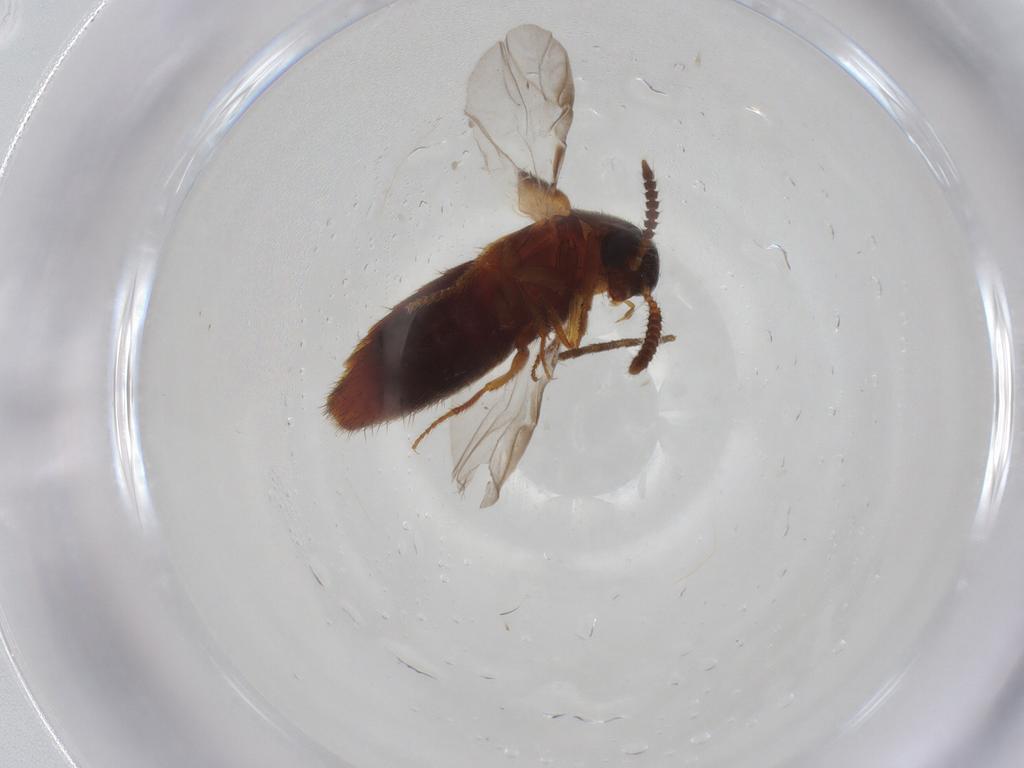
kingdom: Animalia
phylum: Arthropoda
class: Insecta
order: Coleoptera
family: Staphylinidae
